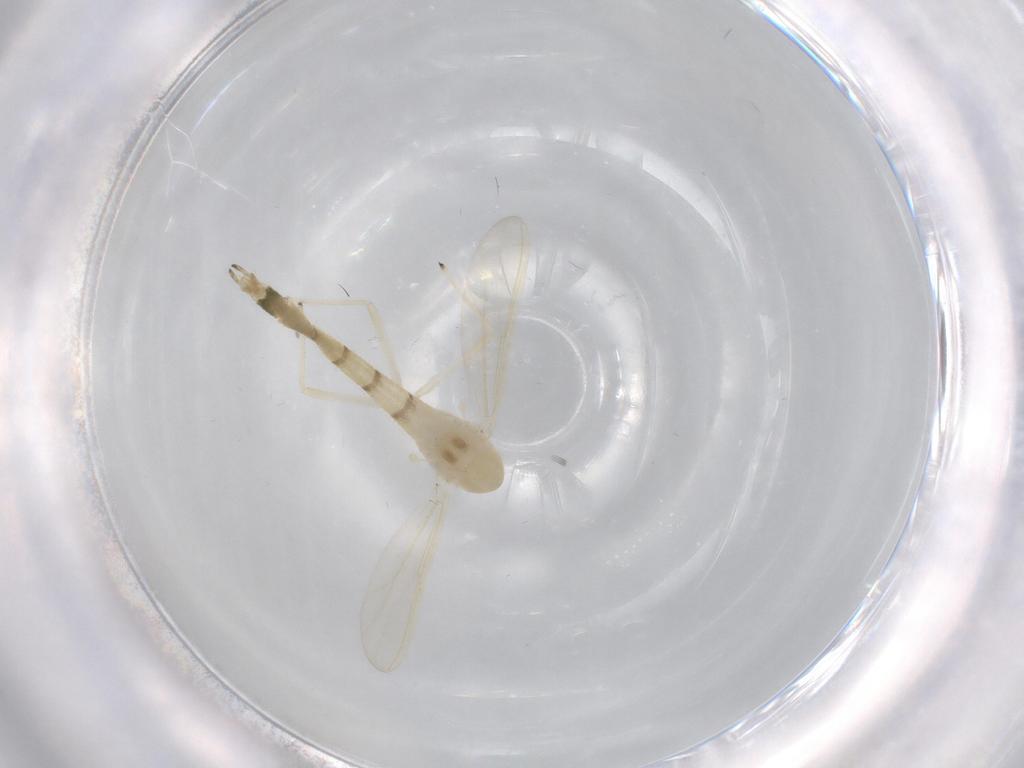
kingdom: Animalia
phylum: Arthropoda
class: Insecta
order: Diptera
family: Chironomidae
